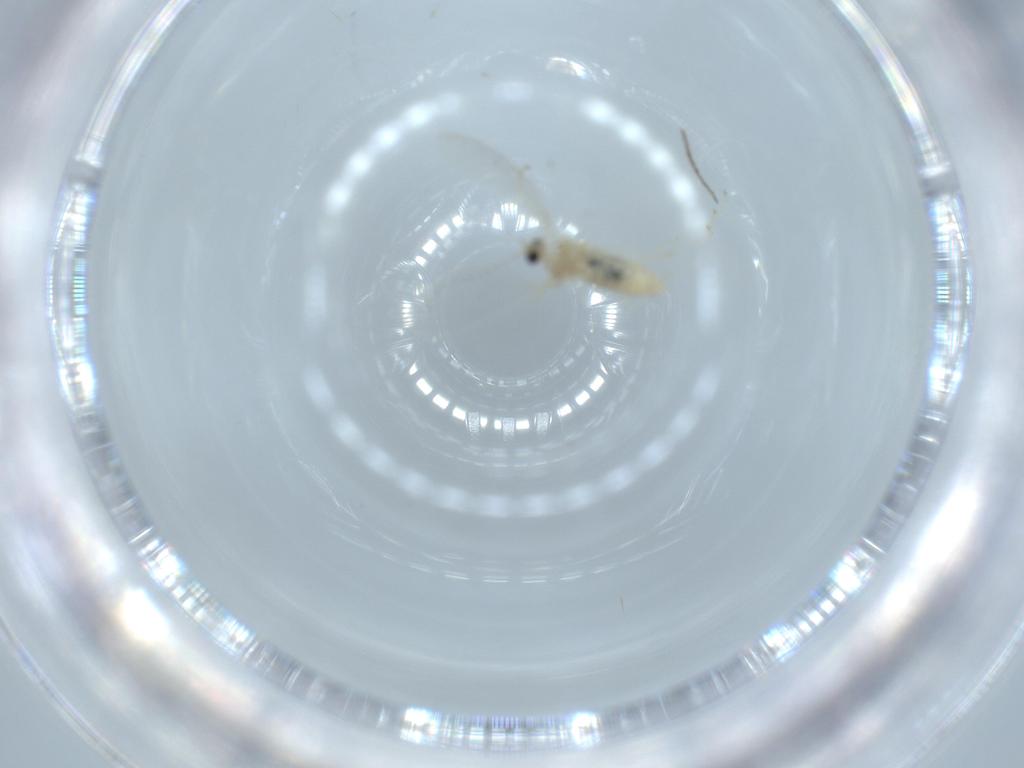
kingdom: Animalia
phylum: Arthropoda
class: Insecta
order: Diptera
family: Cecidomyiidae
